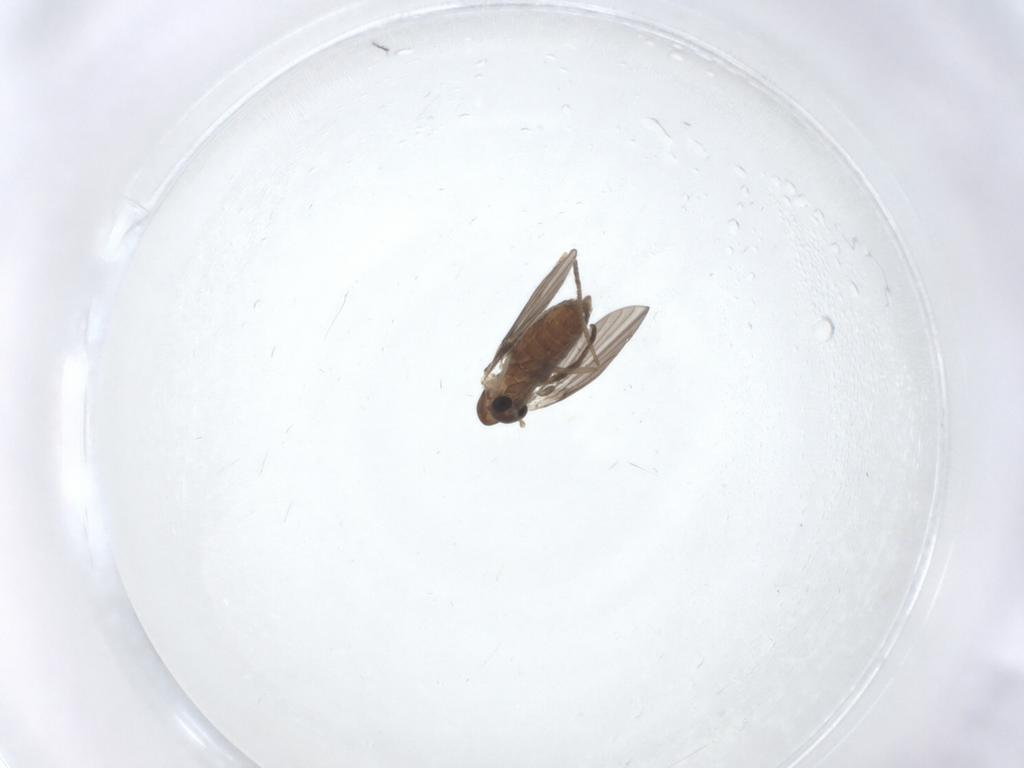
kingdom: Animalia
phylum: Arthropoda
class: Insecta
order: Diptera
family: Psychodidae
